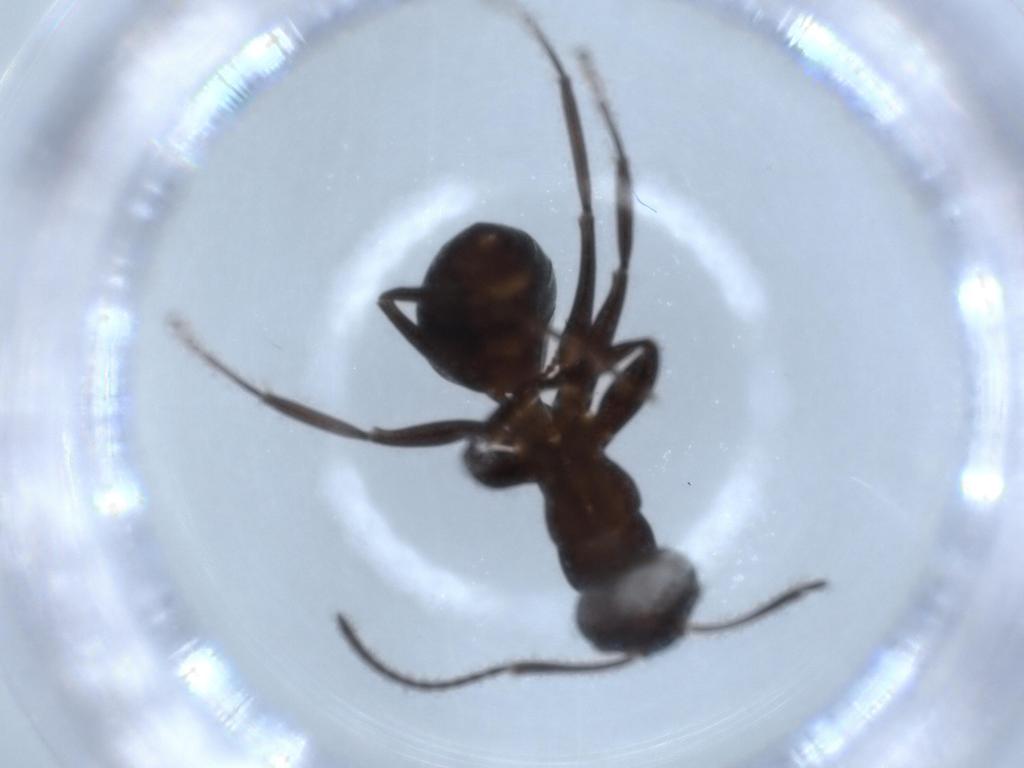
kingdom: Animalia
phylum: Arthropoda
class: Insecta
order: Hymenoptera
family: Formicidae
